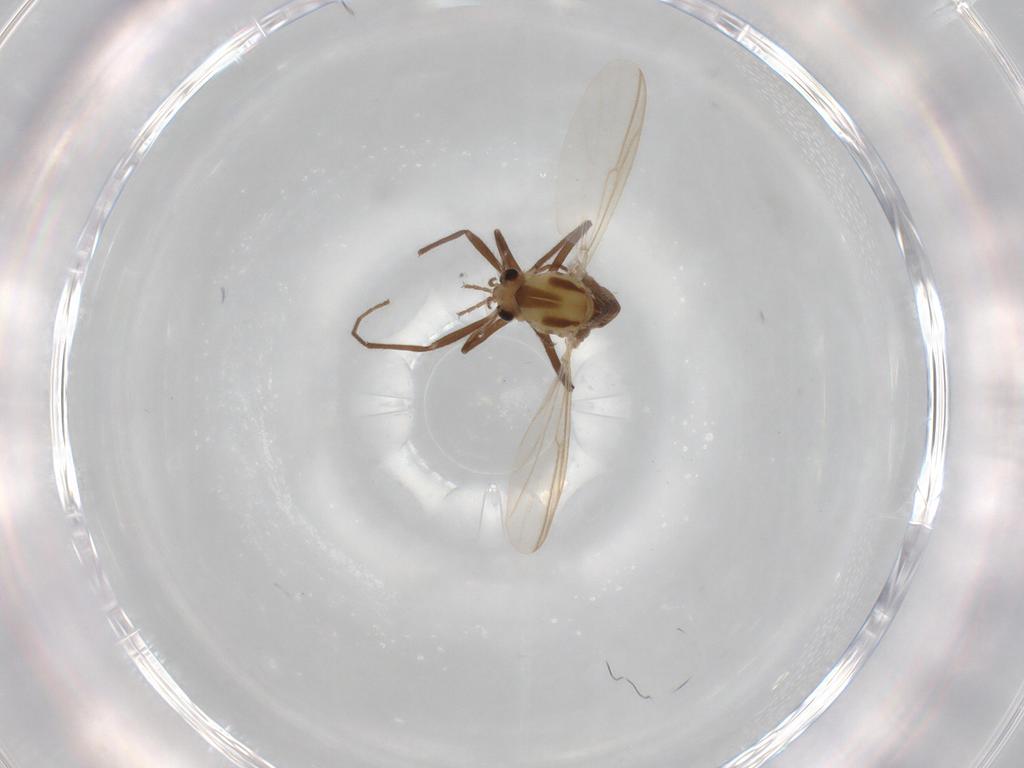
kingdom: Animalia
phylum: Arthropoda
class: Insecta
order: Diptera
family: Chironomidae
